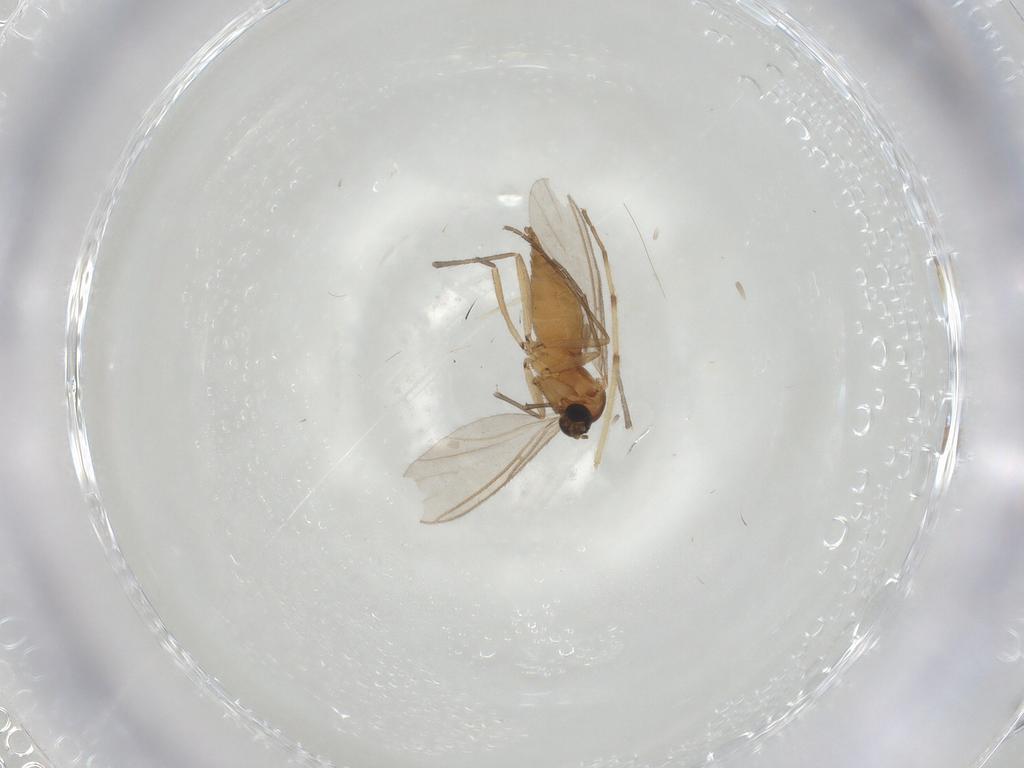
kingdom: Animalia
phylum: Arthropoda
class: Insecta
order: Diptera
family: Sciaridae
